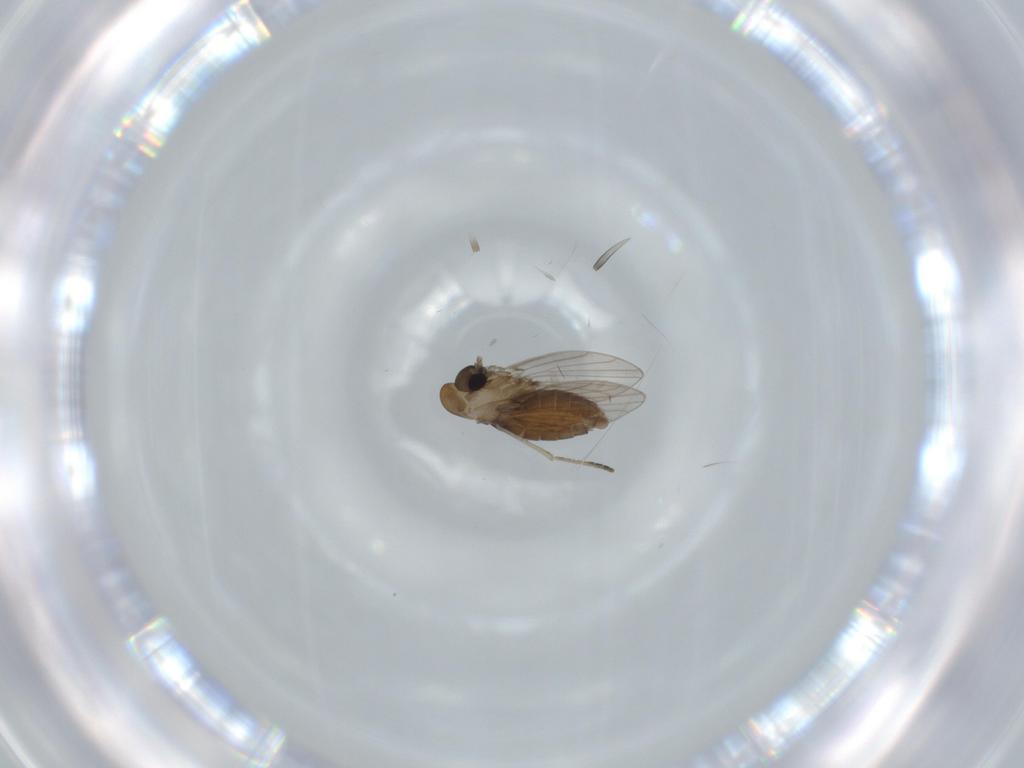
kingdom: Animalia
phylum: Arthropoda
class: Insecta
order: Diptera
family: Psychodidae
